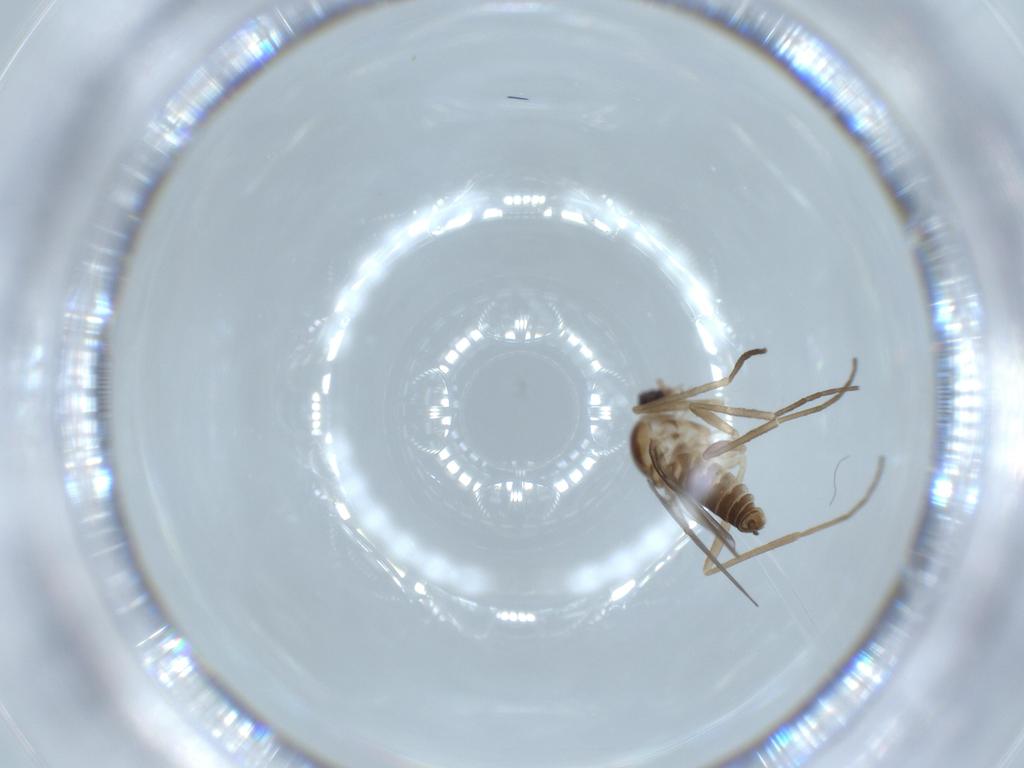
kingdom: Animalia
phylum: Arthropoda
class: Insecta
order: Diptera
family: Cecidomyiidae
